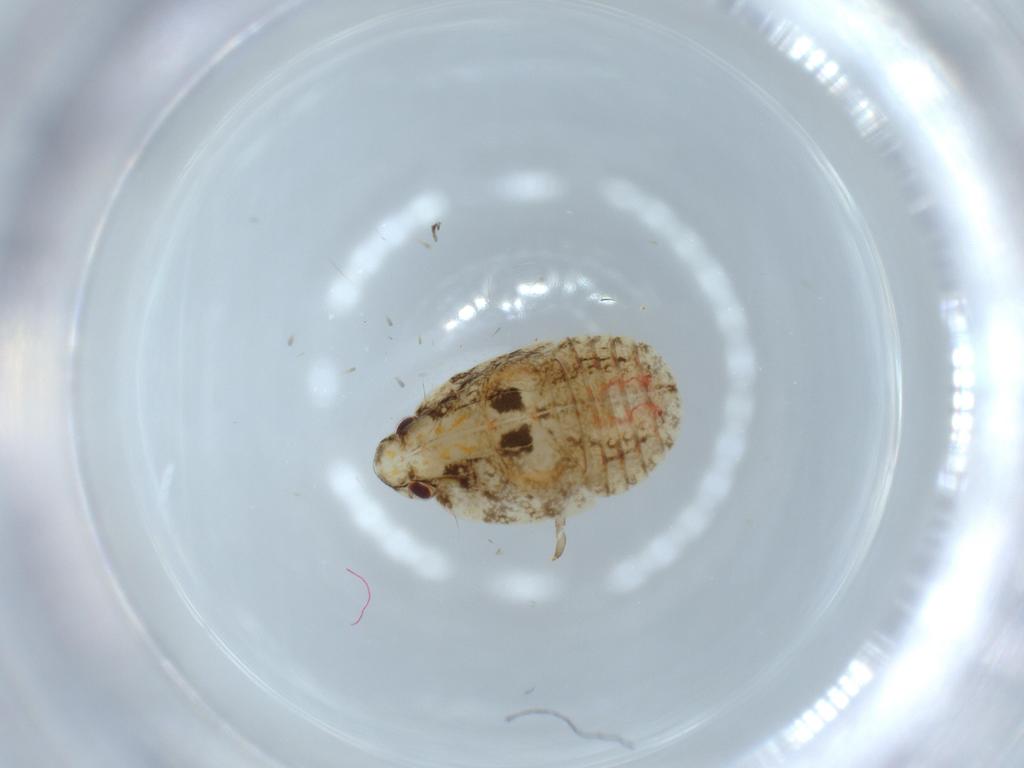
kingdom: Animalia
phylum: Arthropoda
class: Insecta
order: Hemiptera
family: Flatidae
